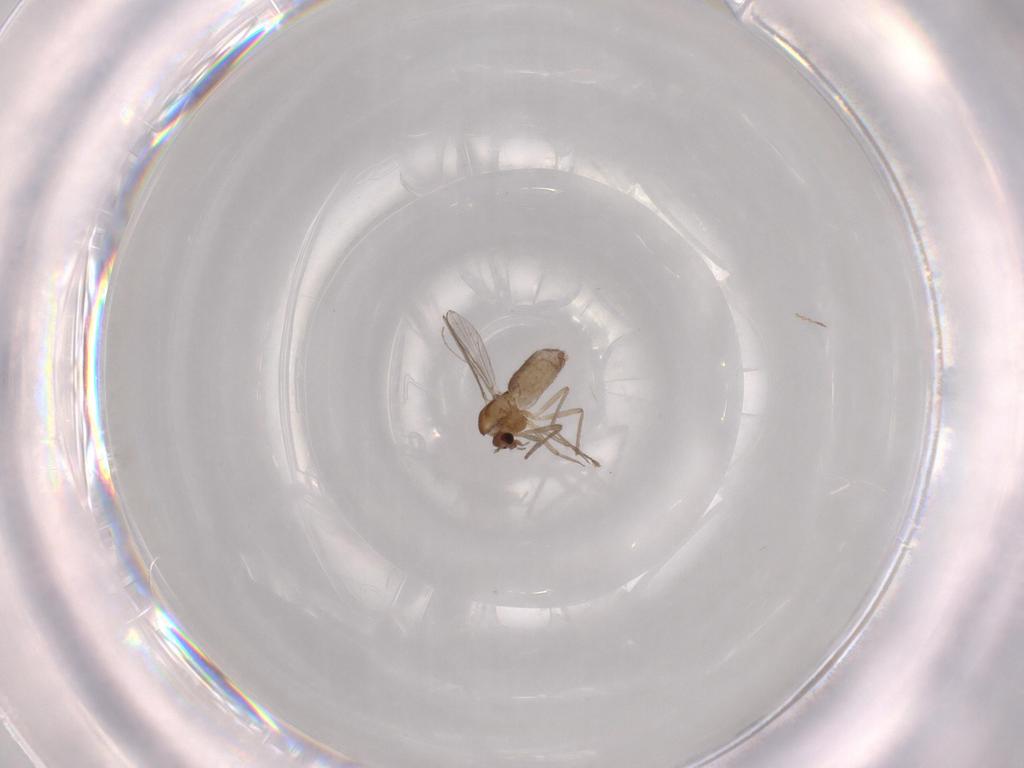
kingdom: Animalia
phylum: Arthropoda
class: Insecta
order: Diptera
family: Chironomidae
